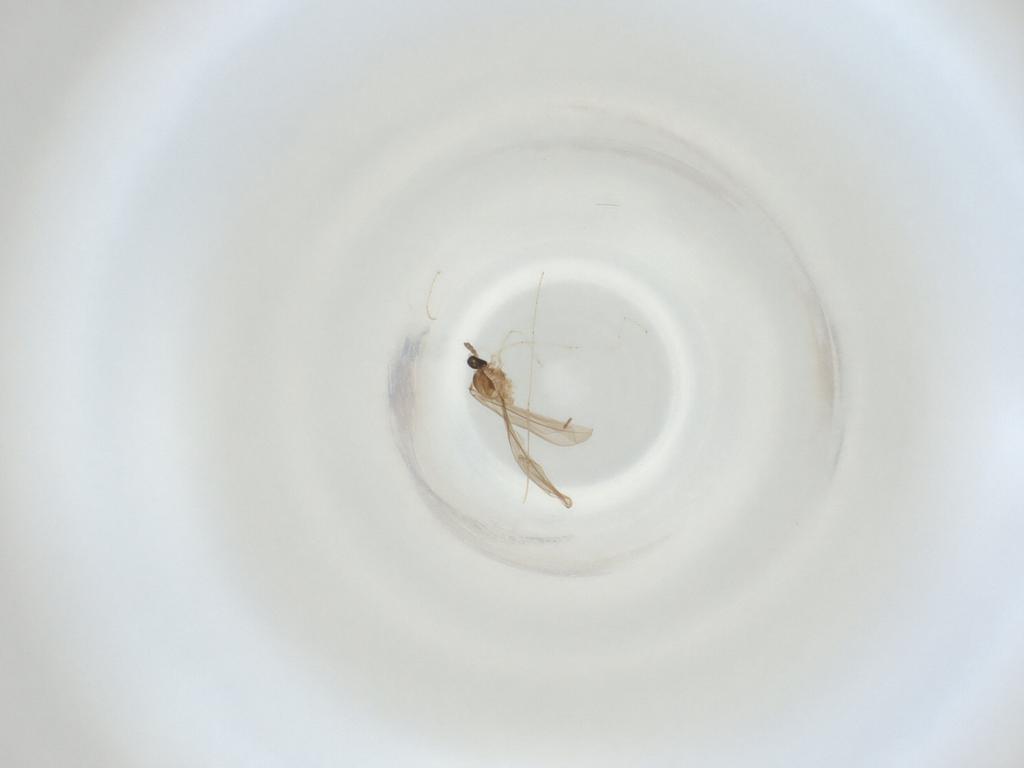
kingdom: Animalia
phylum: Arthropoda
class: Insecta
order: Diptera
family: Cecidomyiidae
